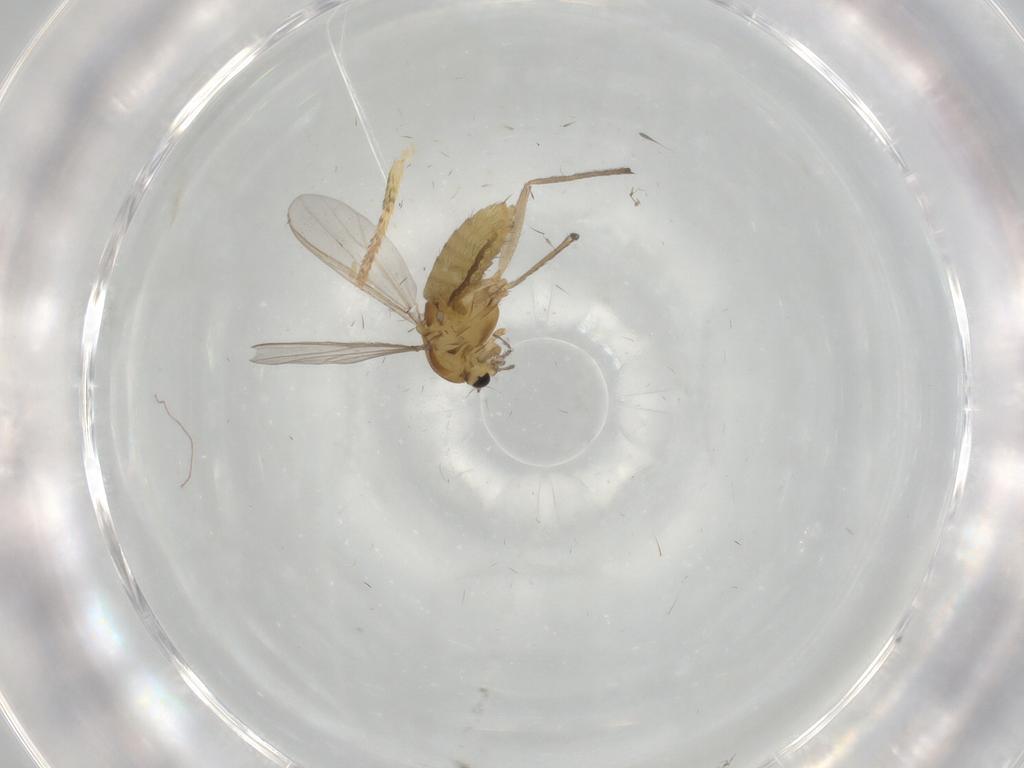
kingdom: Animalia
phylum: Arthropoda
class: Insecta
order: Diptera
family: Chironomidae
